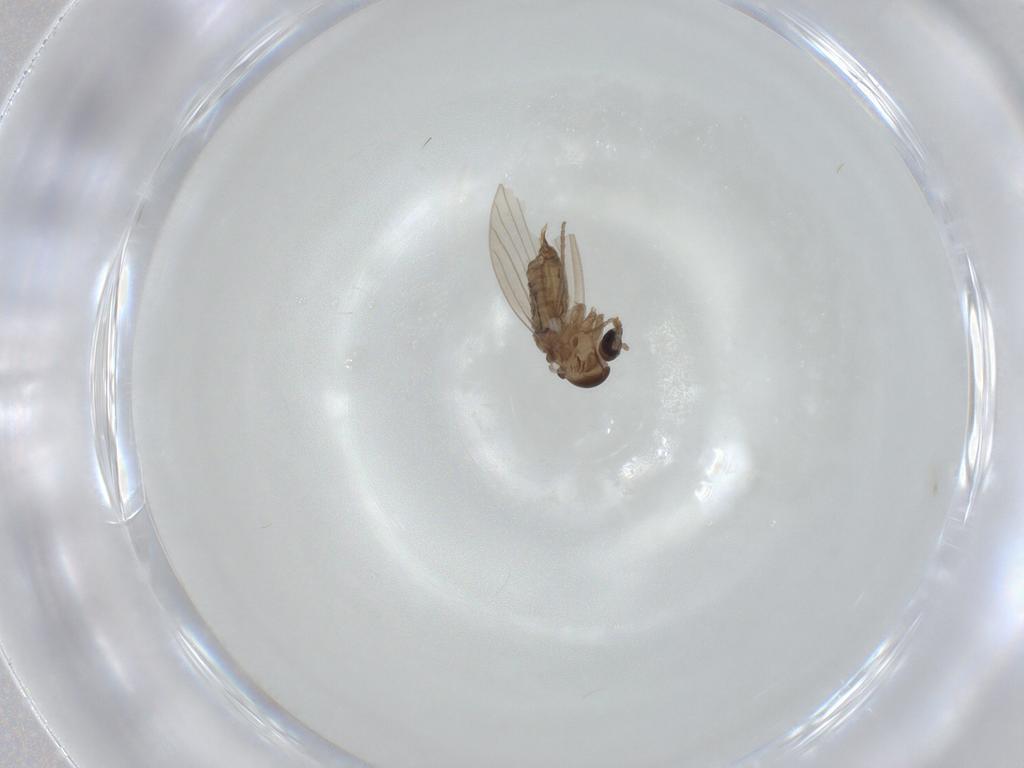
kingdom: Animalia
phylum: Arthropoda
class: Insecta
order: Diptera
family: Psychodidae
